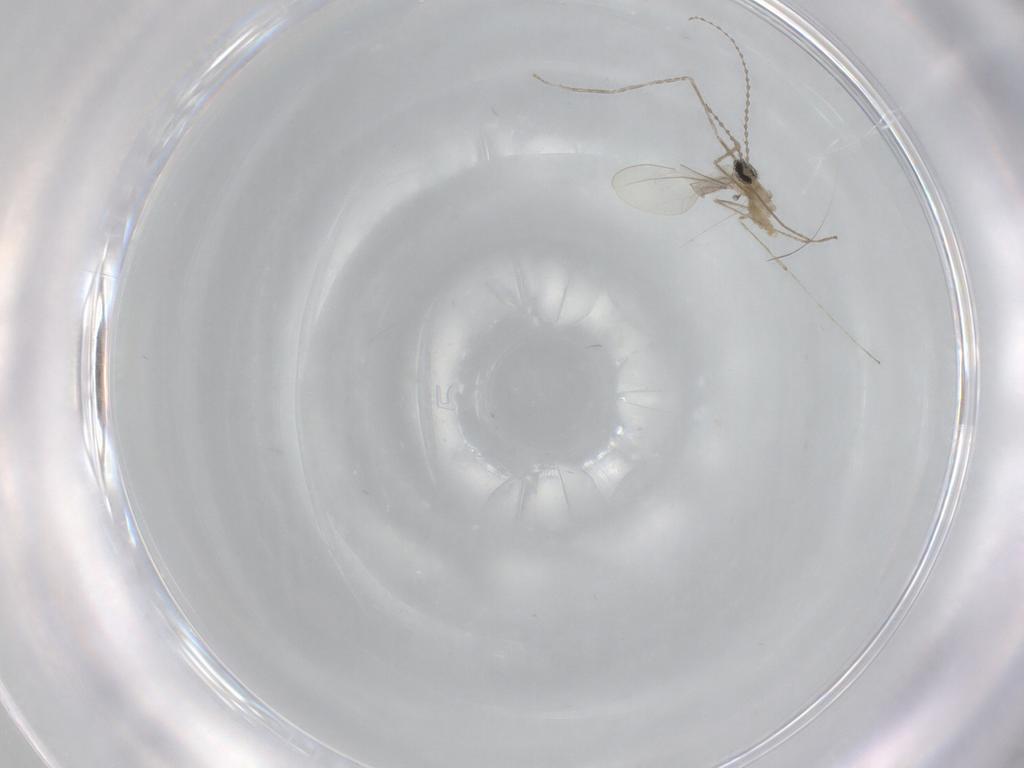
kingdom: Animalia
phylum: Arthropoda
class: Insecta
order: Diptera
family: Cecidomyiidae
